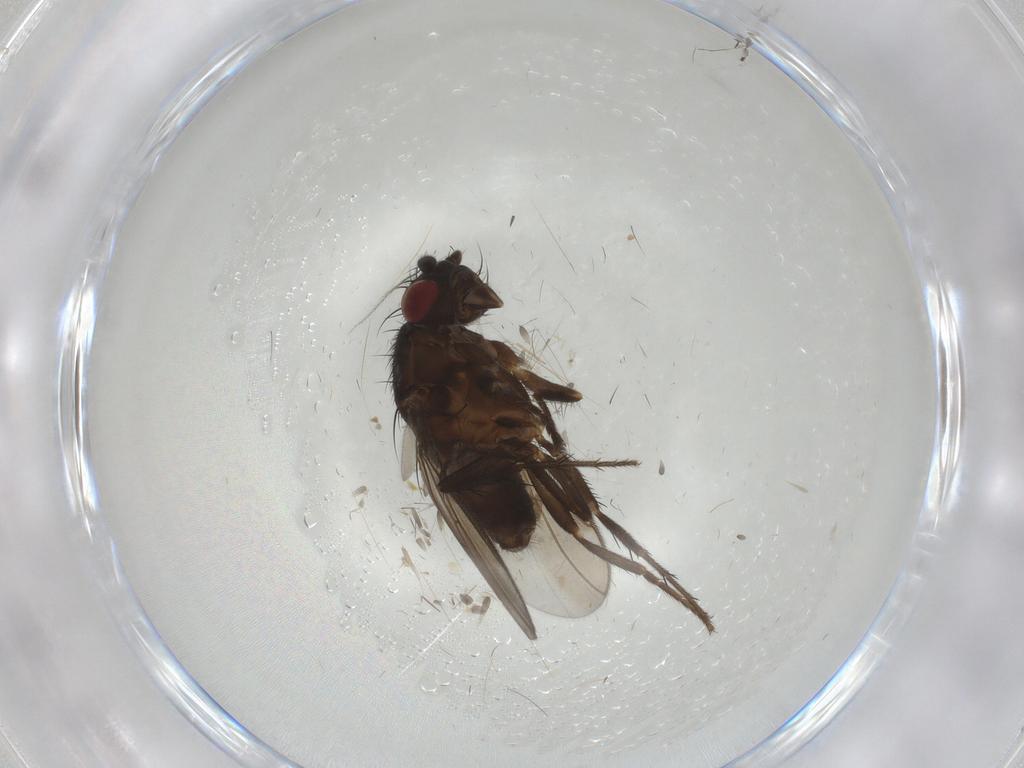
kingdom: Animalia
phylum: Arthropoda
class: Insecta
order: Diptera
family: Sphaeroceridae
